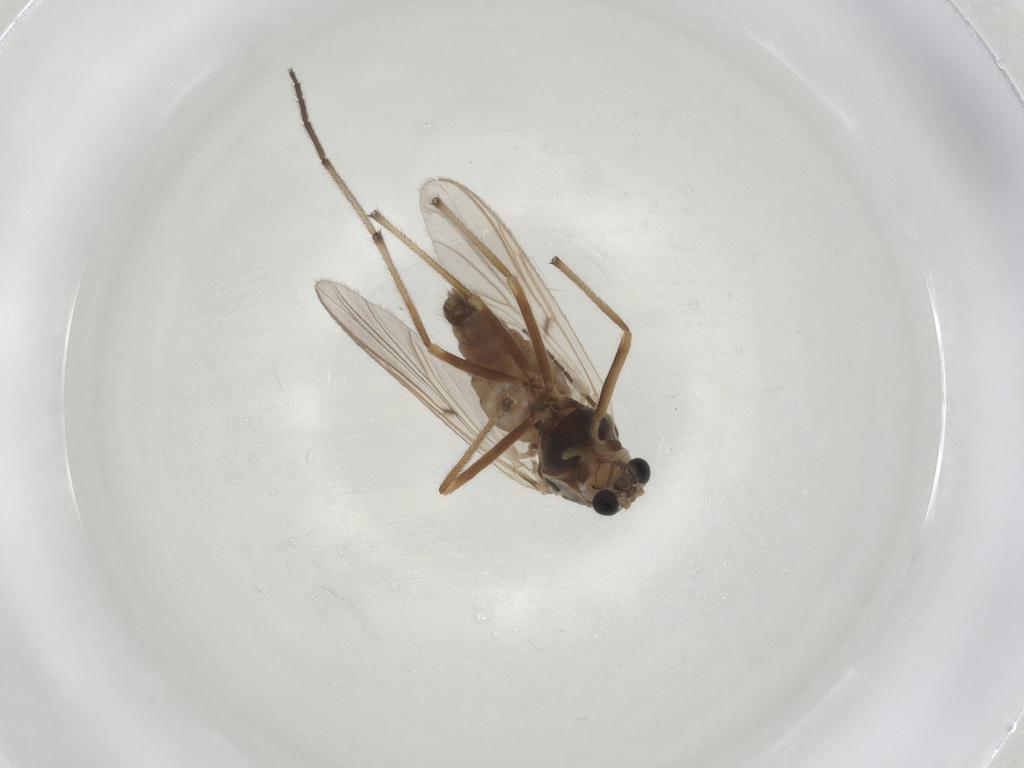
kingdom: Animalia
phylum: Arthropoda
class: Insecta
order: Diptera
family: Chironomidae
